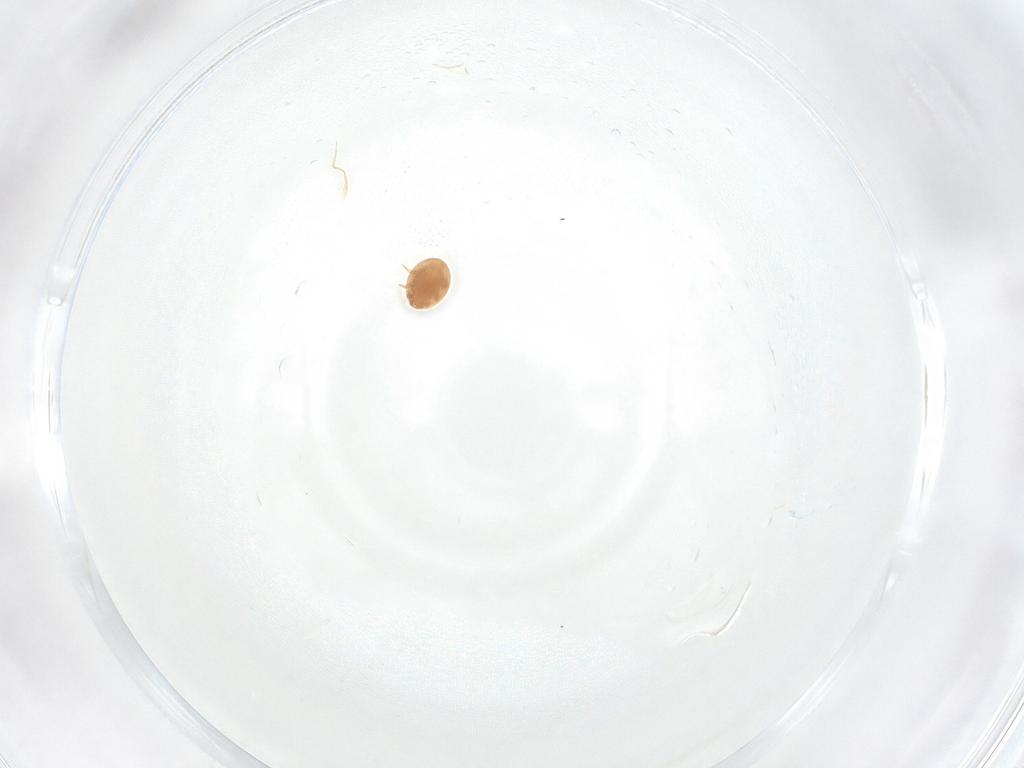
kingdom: Animalia
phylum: Arthropoda
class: Arachnida
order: Mesostigmata
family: Trematuridae
